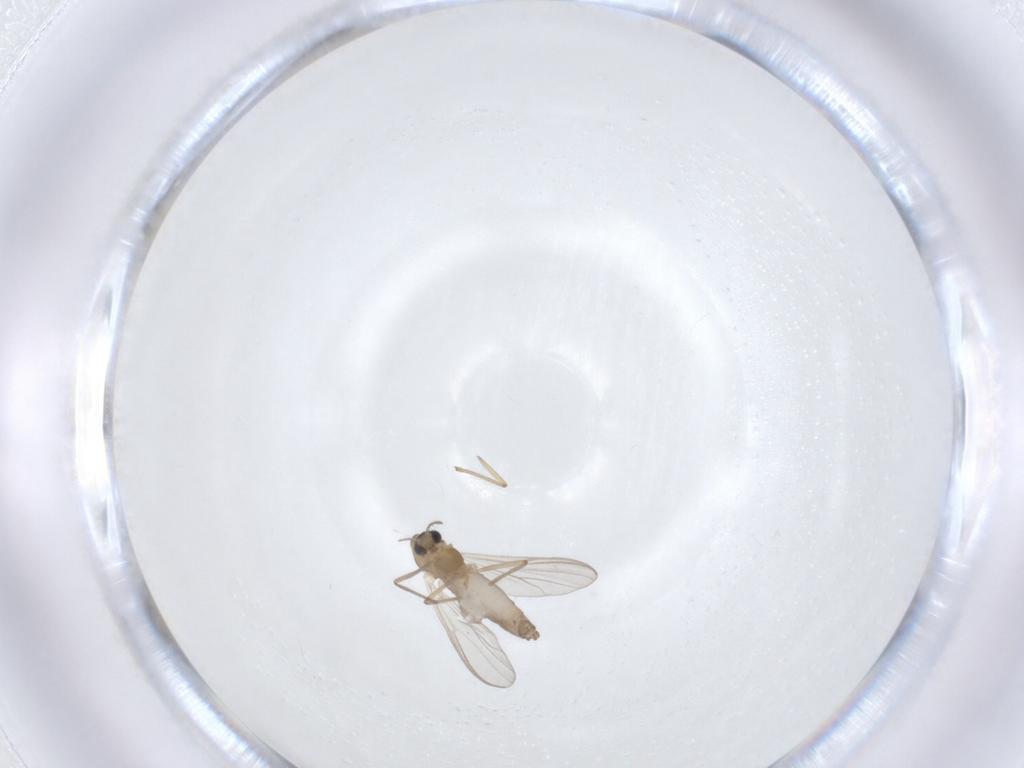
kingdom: Animalia
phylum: Arthropoda
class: Insecta
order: Diptera
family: Chironomidae
